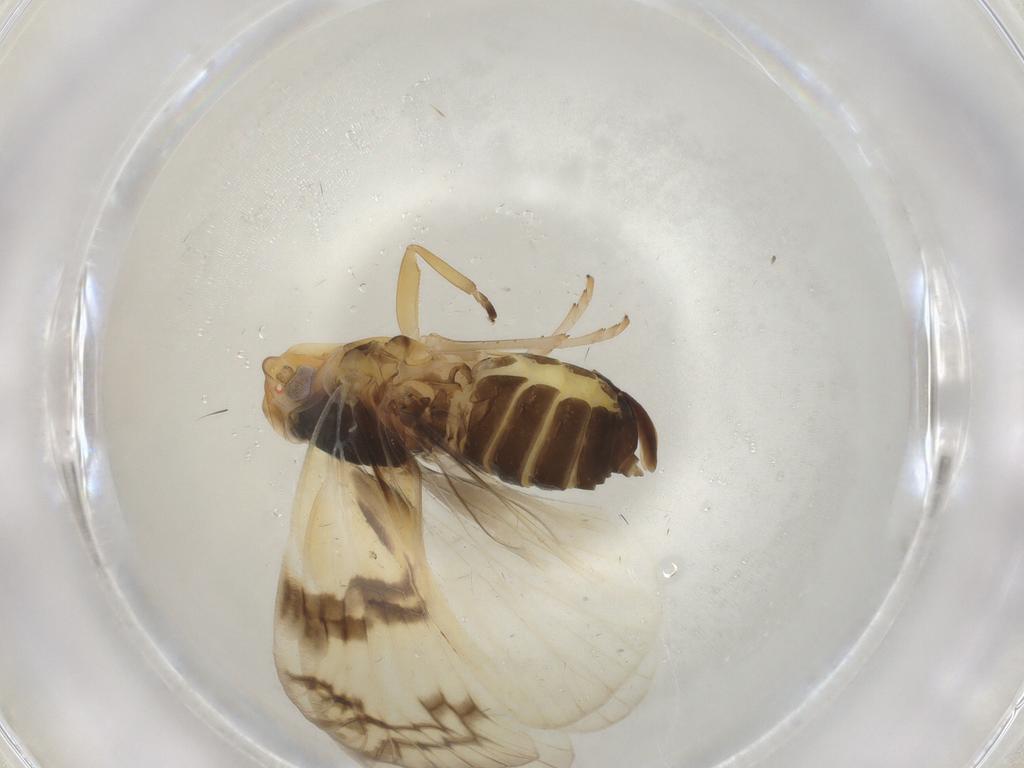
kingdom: Animalia
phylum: Arthropoda
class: Insecta
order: Hemiptera
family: Cixiidae
